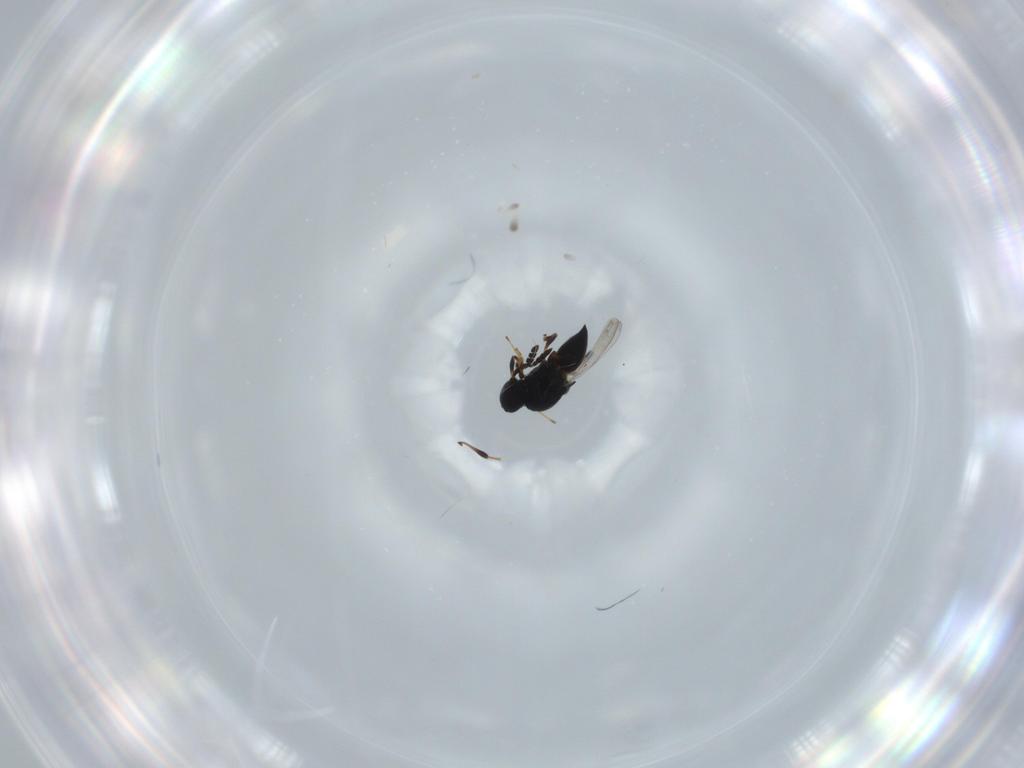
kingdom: Animalia
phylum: Arthropoda
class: Insecta
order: Hymenoptera
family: Platygastridae
